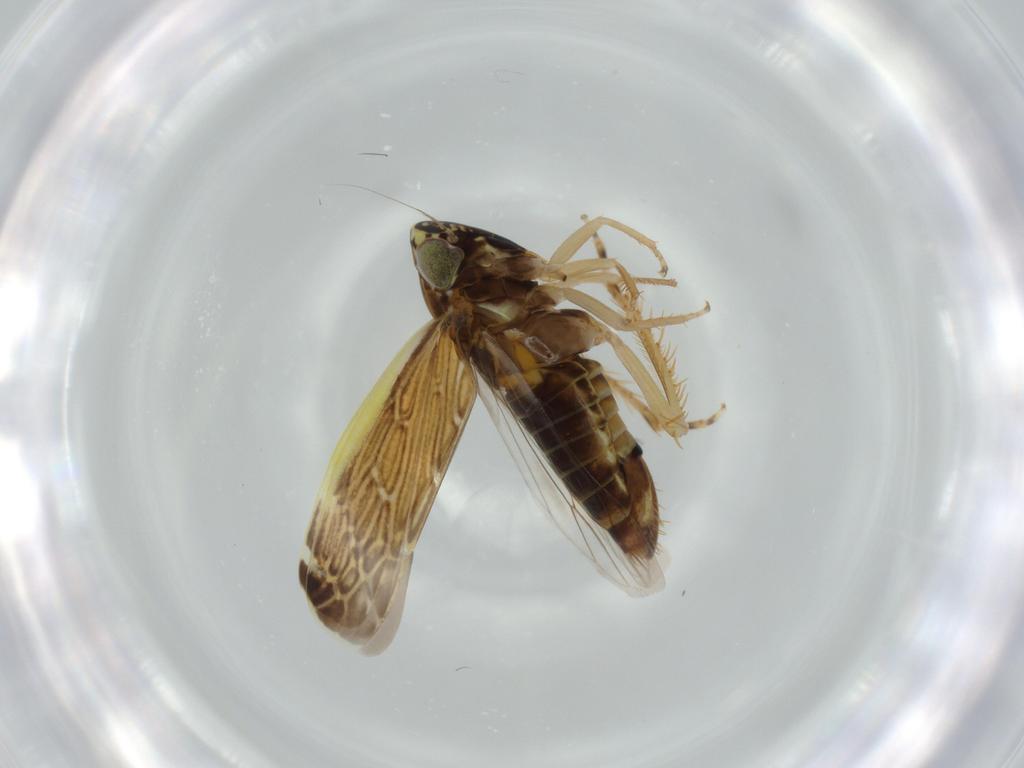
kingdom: Animalia
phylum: Arthropoda
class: Insecta
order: Hemiptera
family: Cicadellidae
